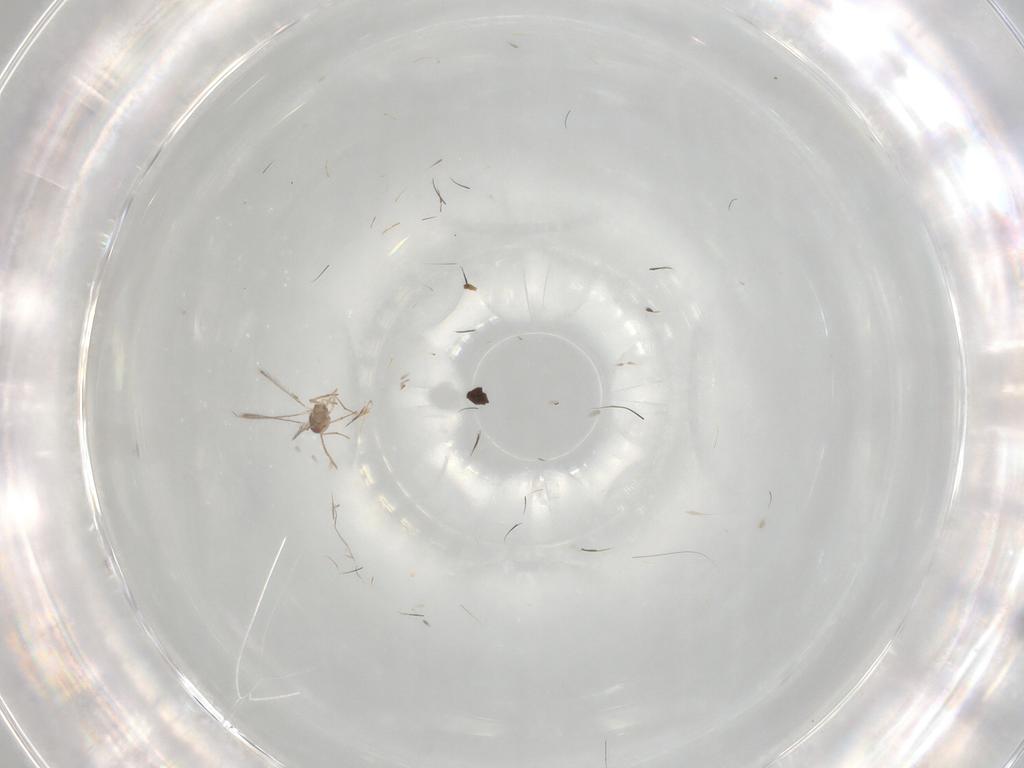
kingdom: Animalia
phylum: Arthropoda
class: Insecta
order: Hymenoptera
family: Mymaridae
